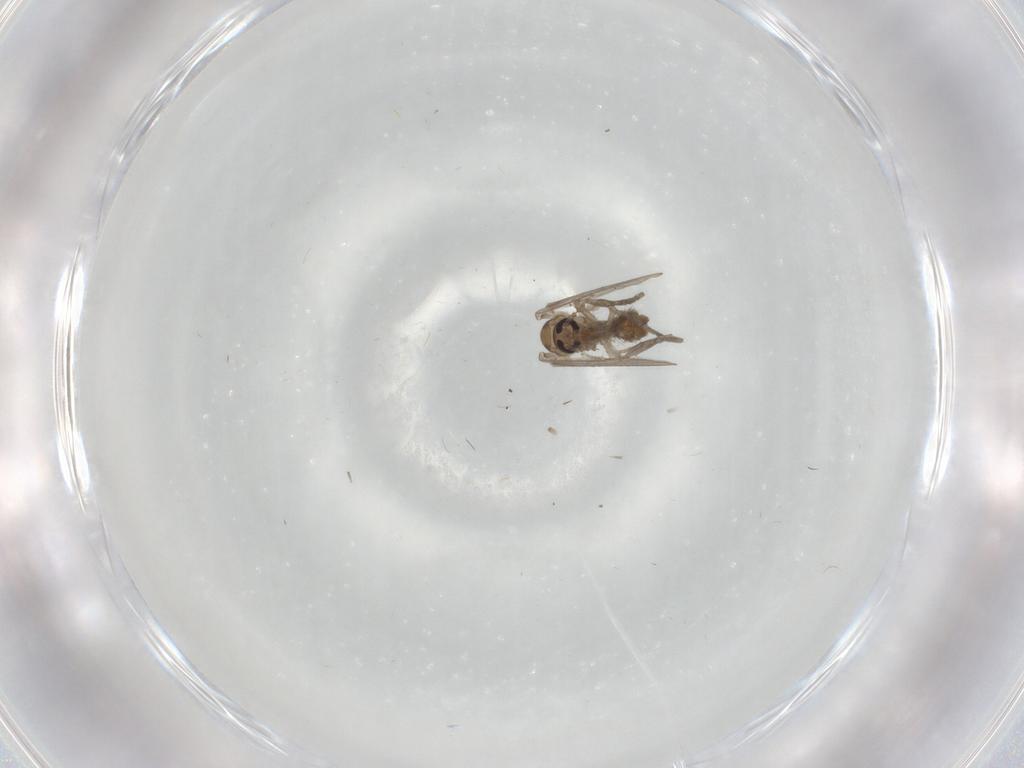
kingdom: Animalia
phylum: Arthropoda
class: Insecta
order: Diptera
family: Psychodidae
